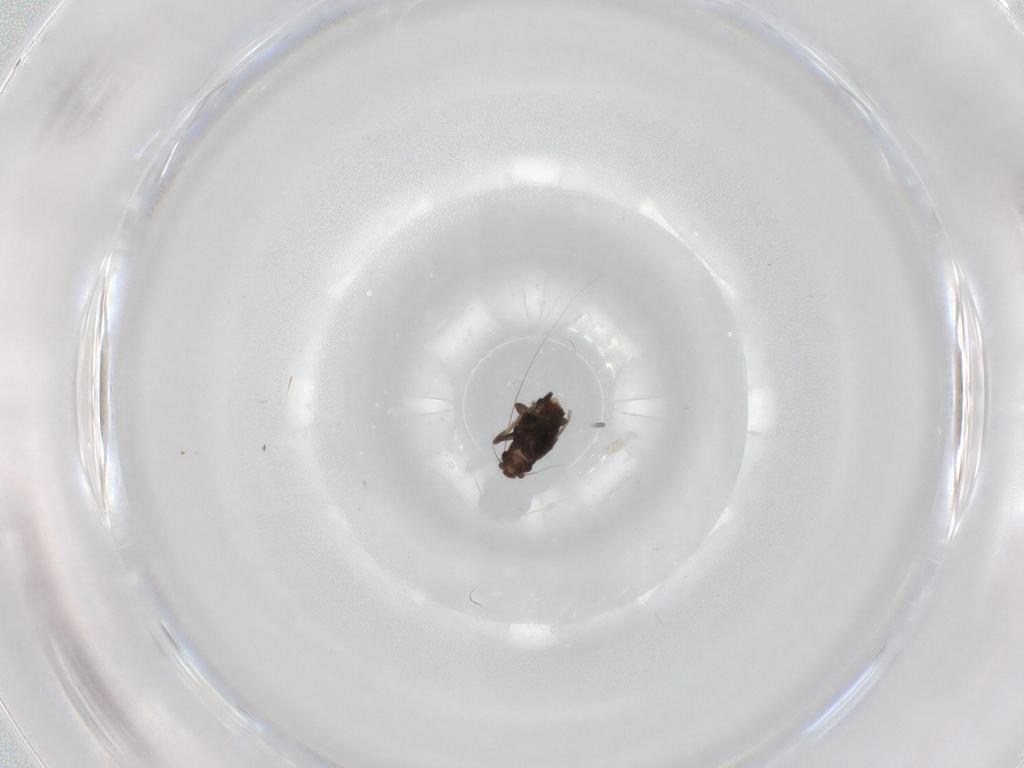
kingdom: Animalia
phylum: Arthropoda
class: Insecta
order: Diptera
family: Phoridae
